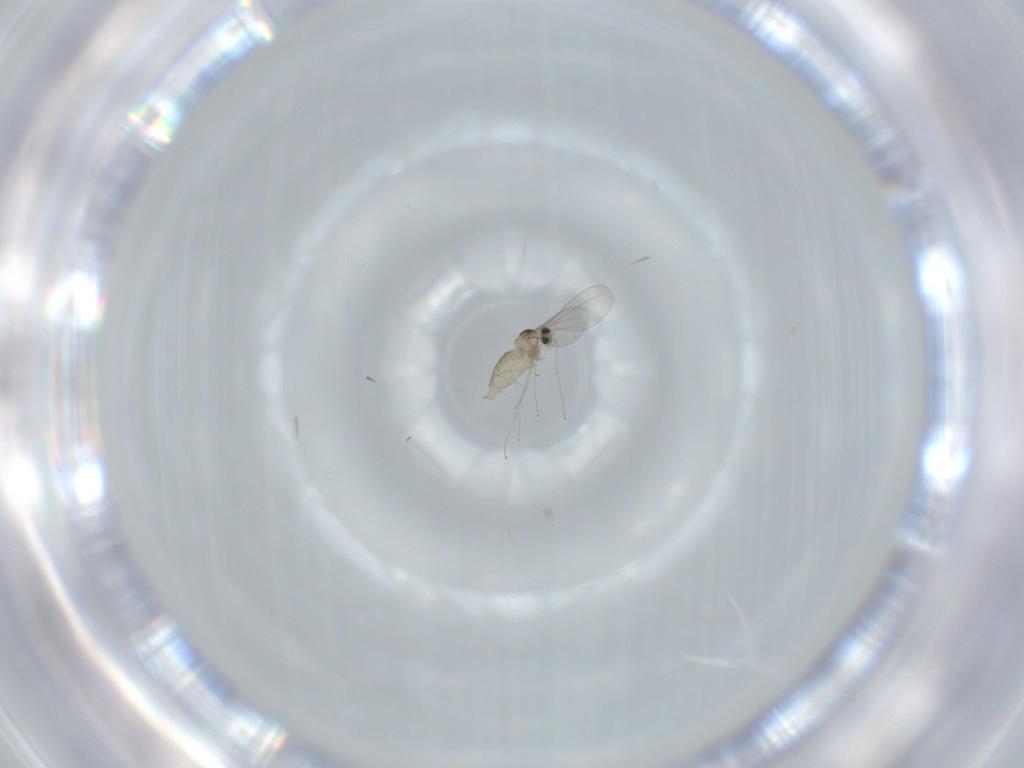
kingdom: Animalia
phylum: Arthropoda
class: Insecta
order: Diptera
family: Cecidomyiidae
